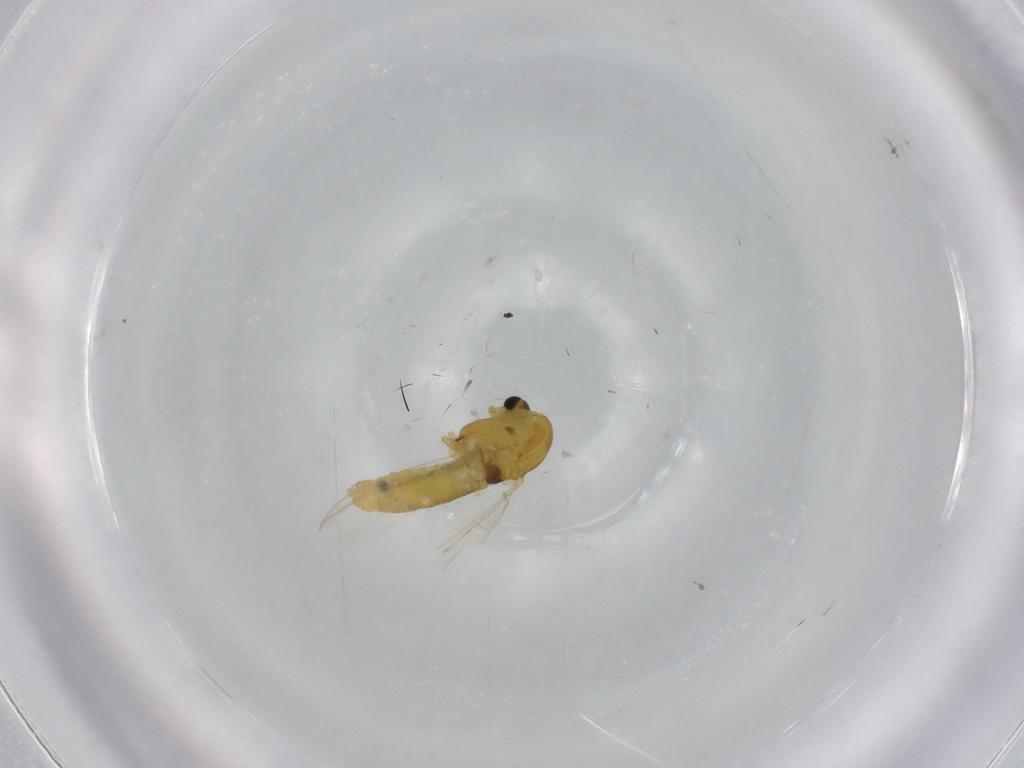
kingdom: Animalia
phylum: Arthropoda
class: Insecta
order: Diptera
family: Chironomidae
